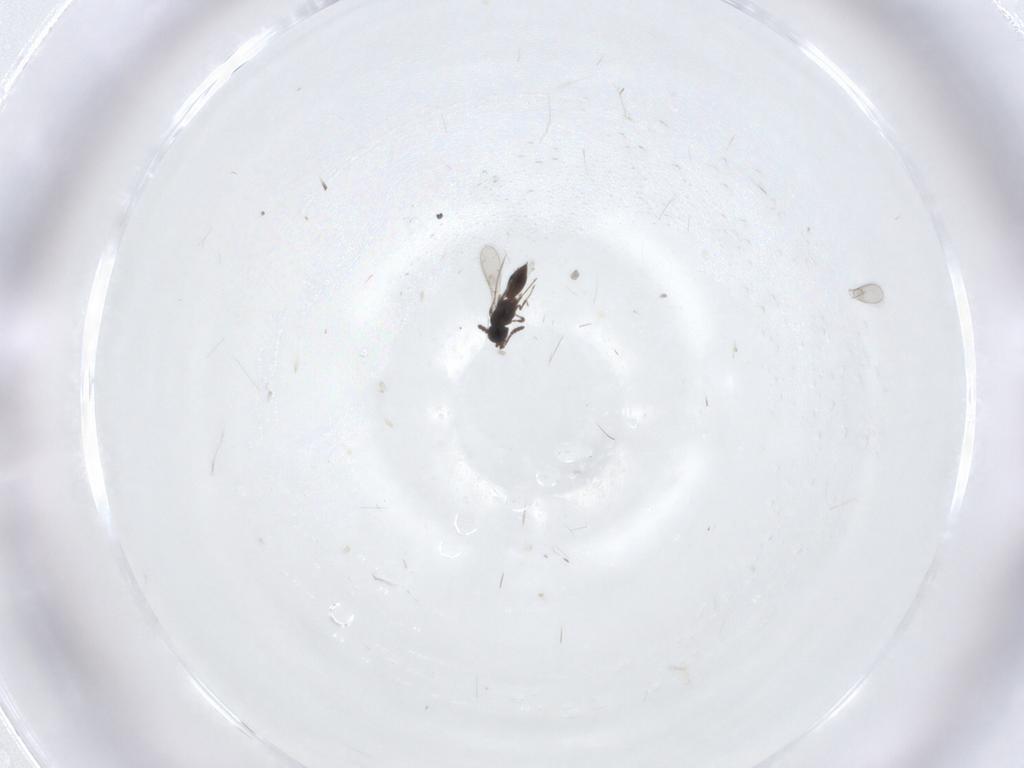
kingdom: Animalia
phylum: Arthropoda
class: Insecta
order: Hymenoptera
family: Scelionidae
